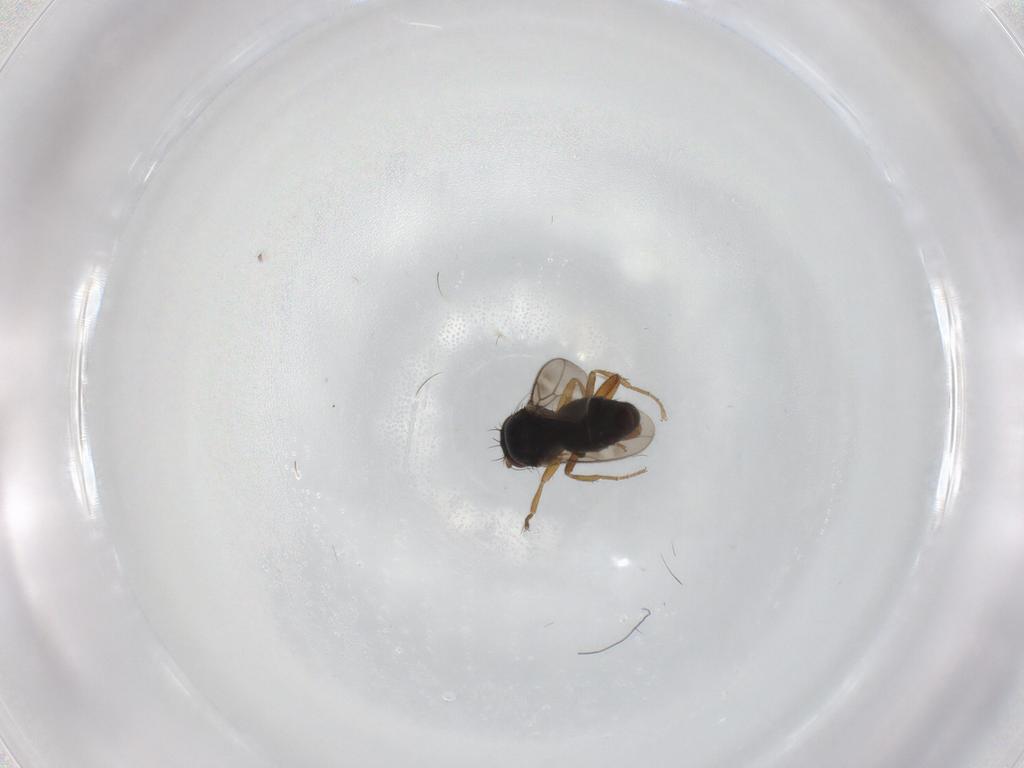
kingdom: Animalia
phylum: Arthropoda
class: Insecta
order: Diptera
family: Sphaeroceridae
